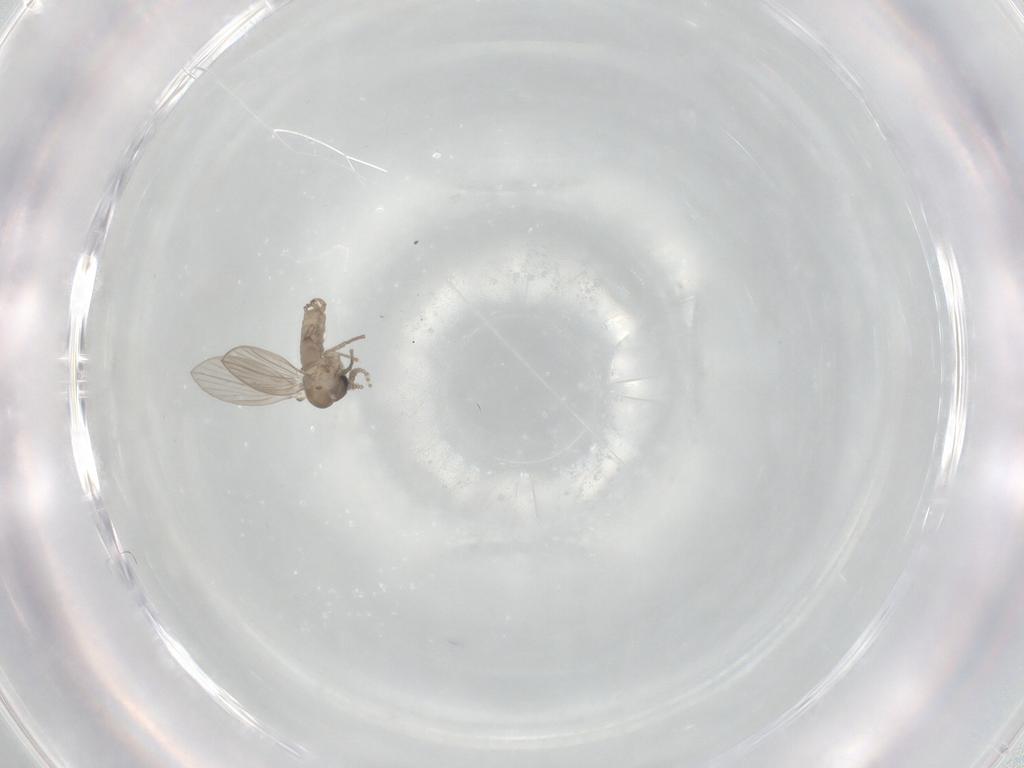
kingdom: Animalia
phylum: Arthropoda
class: Insecta
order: Diptera
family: Psychodidae
